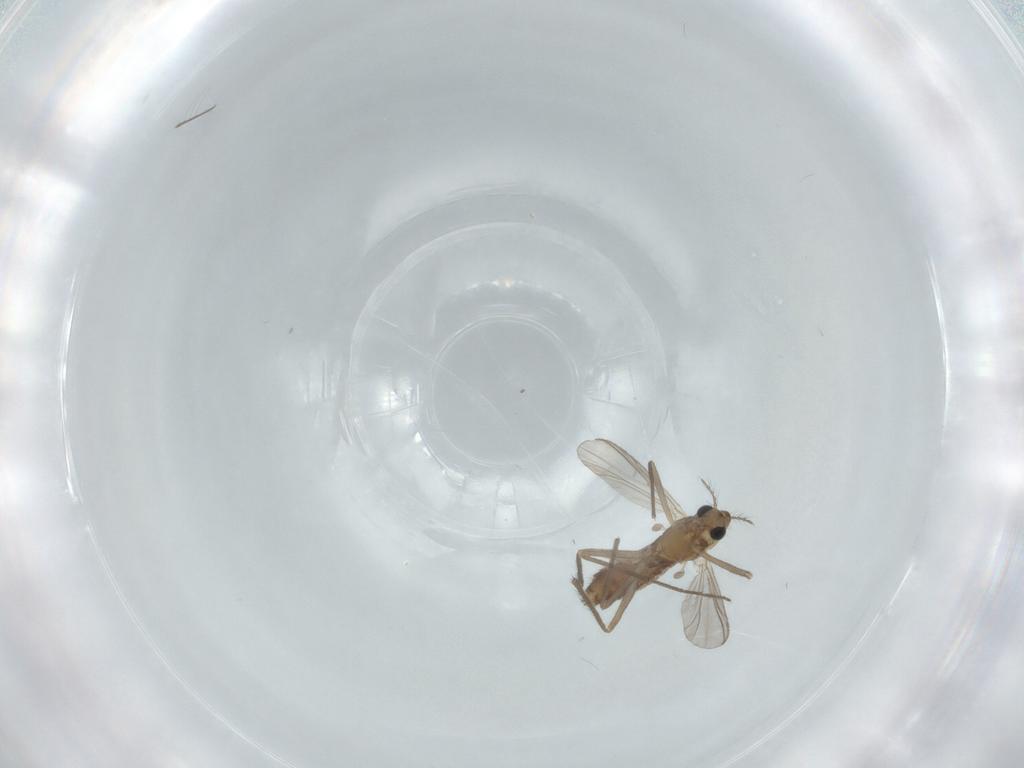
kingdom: Animalia
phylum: Arthropoda
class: Insecta
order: Diptera
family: Chironomidae
